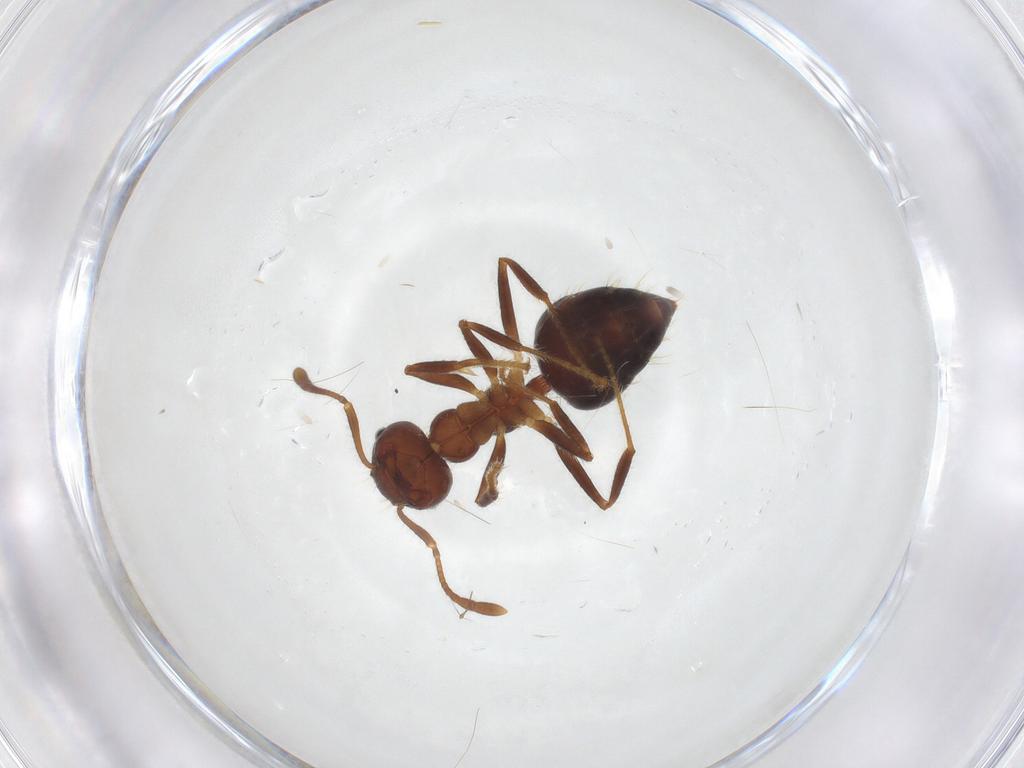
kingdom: Animalia
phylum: Arthropoda
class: Insecta
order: Hymenoptera
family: Formicidae
